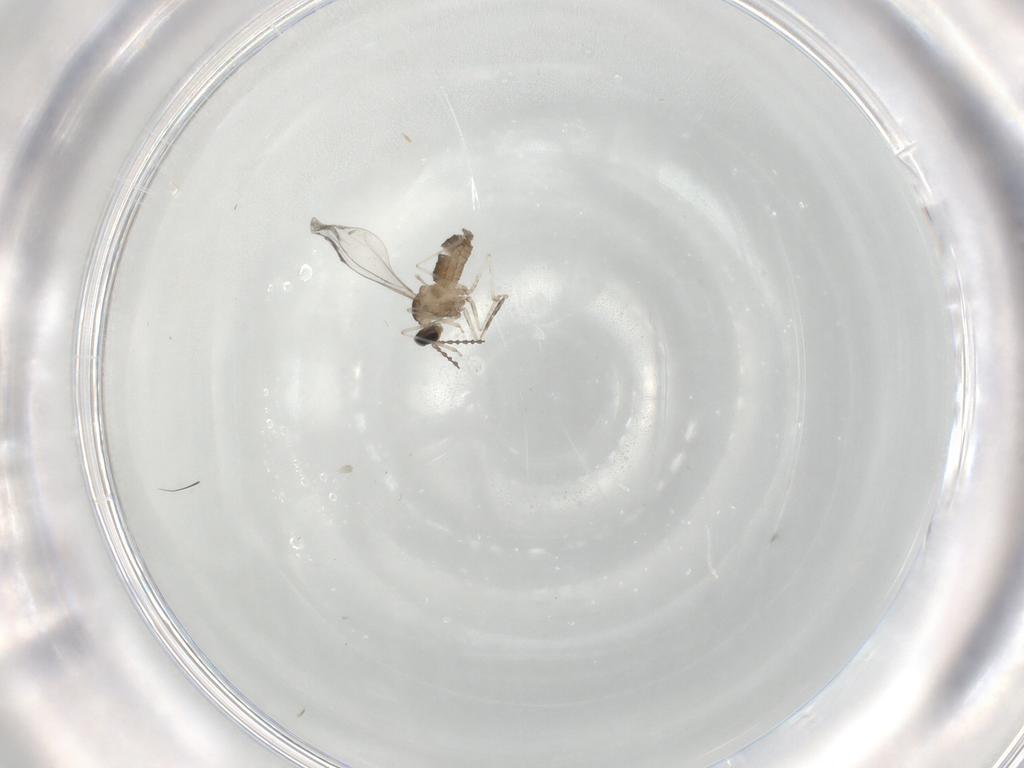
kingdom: Animalia
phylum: Arthropoda
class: Insecta
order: Diptera
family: Cecidomyiidae
